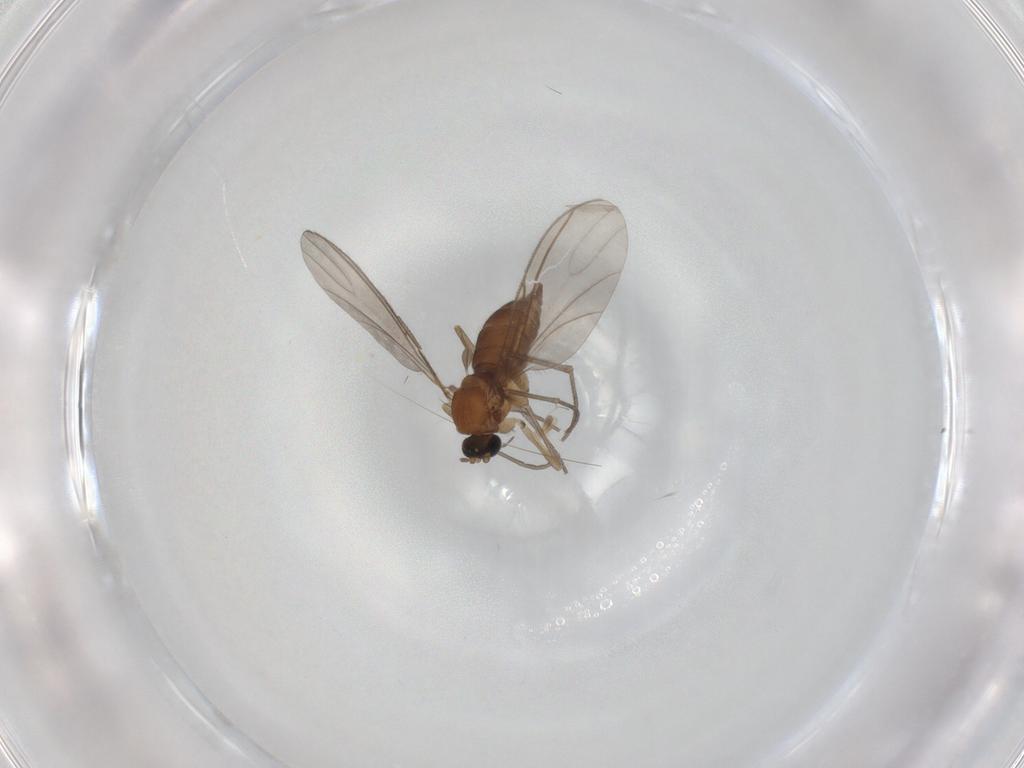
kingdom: Animalia
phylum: Arthropoda
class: Insecta
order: Diptera
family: Sciaridae
